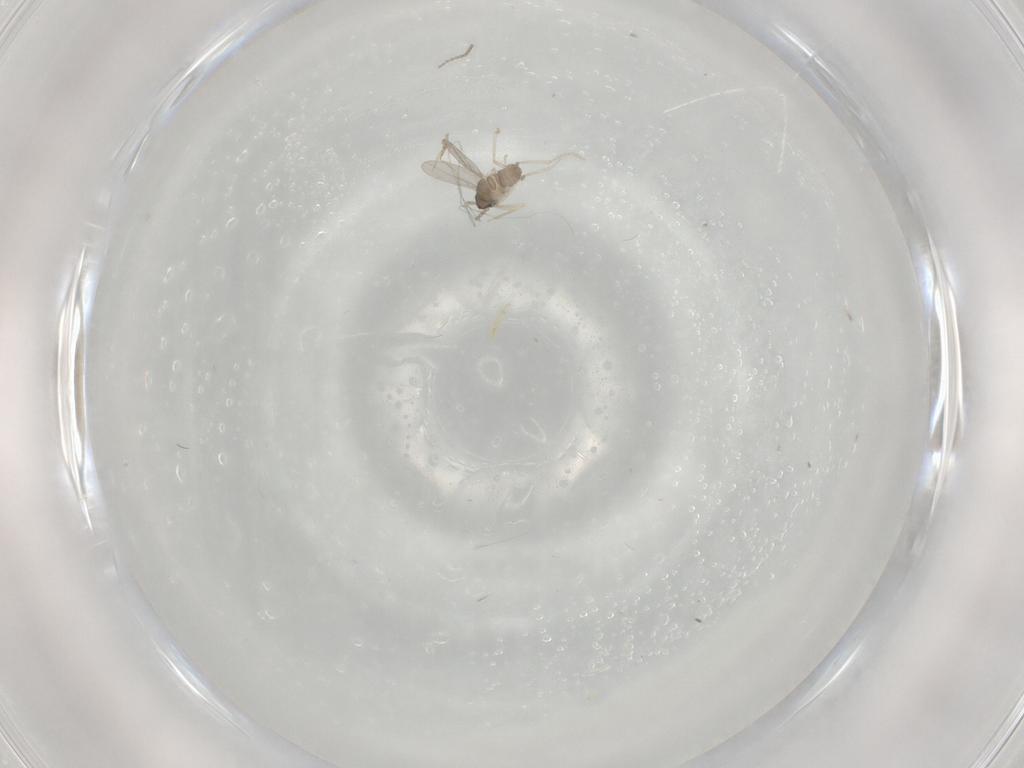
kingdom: Animalia
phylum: Arthropoda
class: Insecta
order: Diptera
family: Cecidomyiidae
